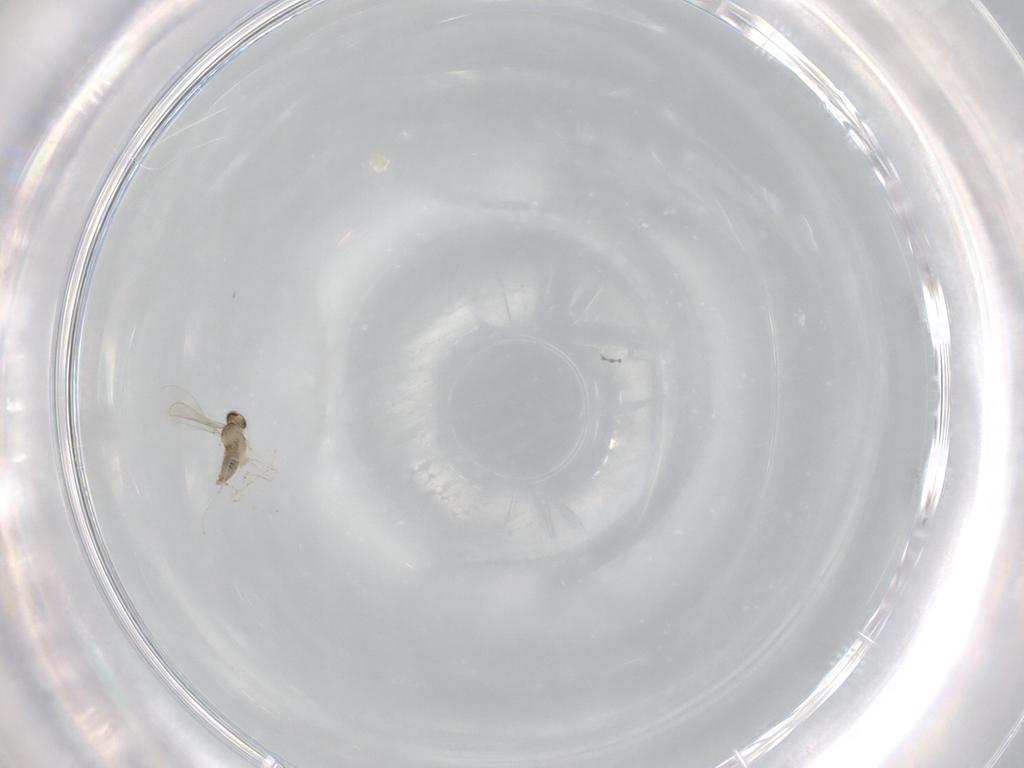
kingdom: Animalia
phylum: Arthropoda
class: Insecta
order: Diptera
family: Cecidomyiidae
